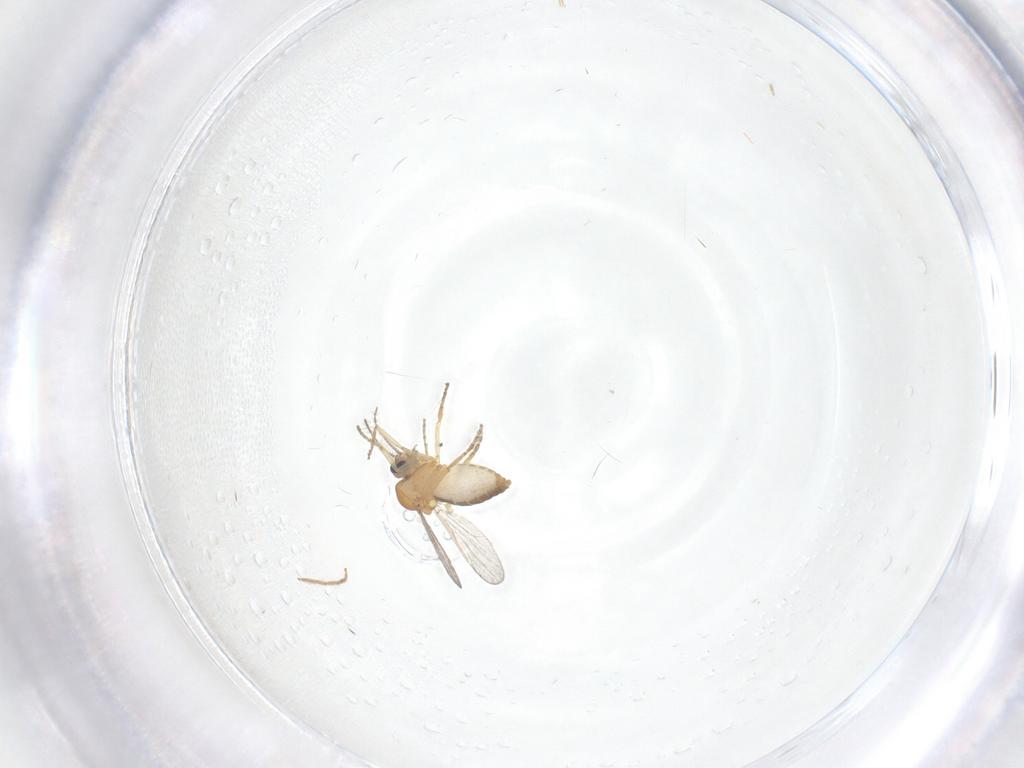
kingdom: Animalia
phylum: Arthropoda
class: Insecta
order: Diptera
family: Ceratopogonidae
